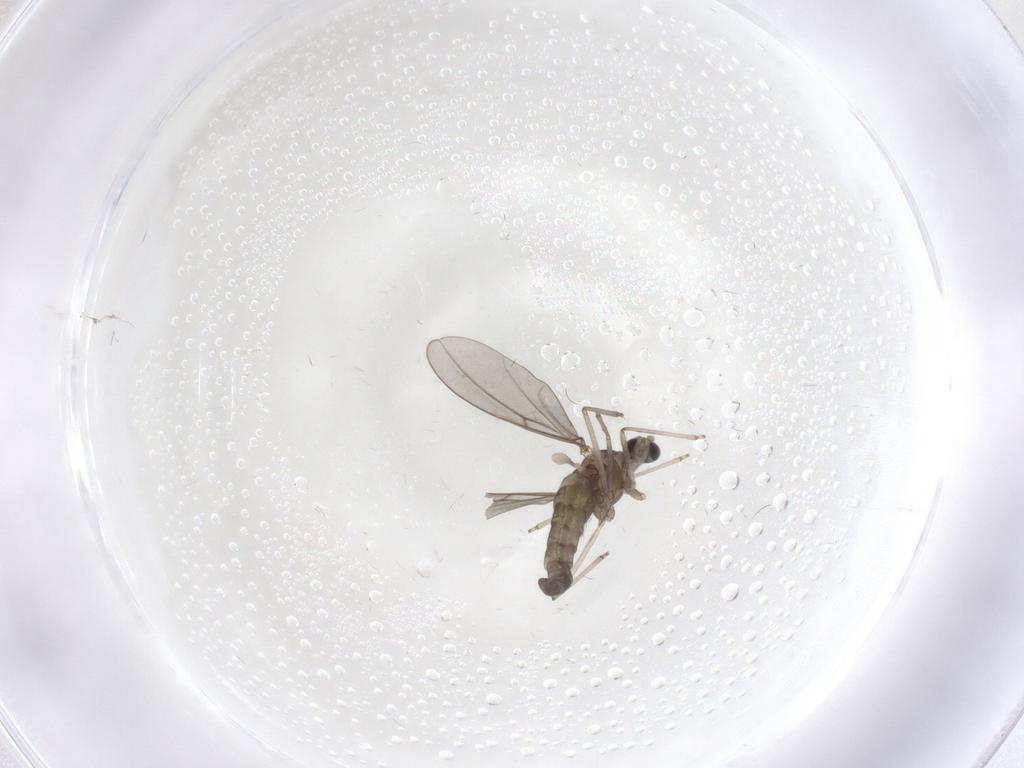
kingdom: Animalia
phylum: Arthropoda
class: Insecta
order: Diptera
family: Cecidomyiidae
